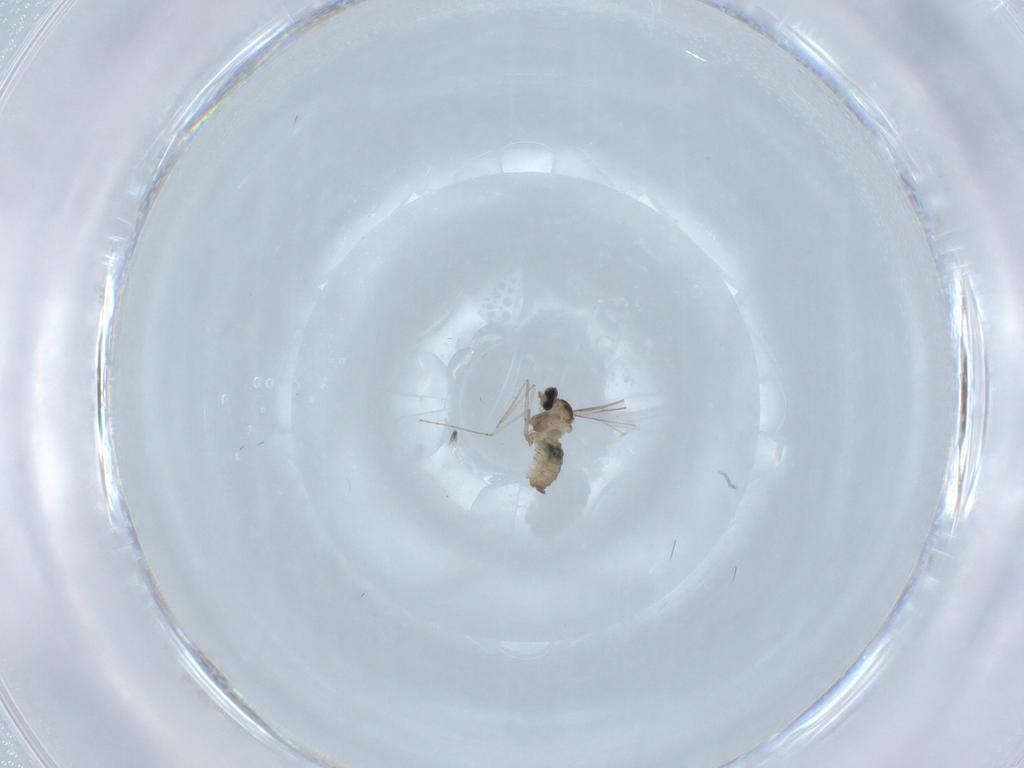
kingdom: Animalia
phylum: Arthropoda
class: Insecta
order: Diptera
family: Cecidomyiidae
